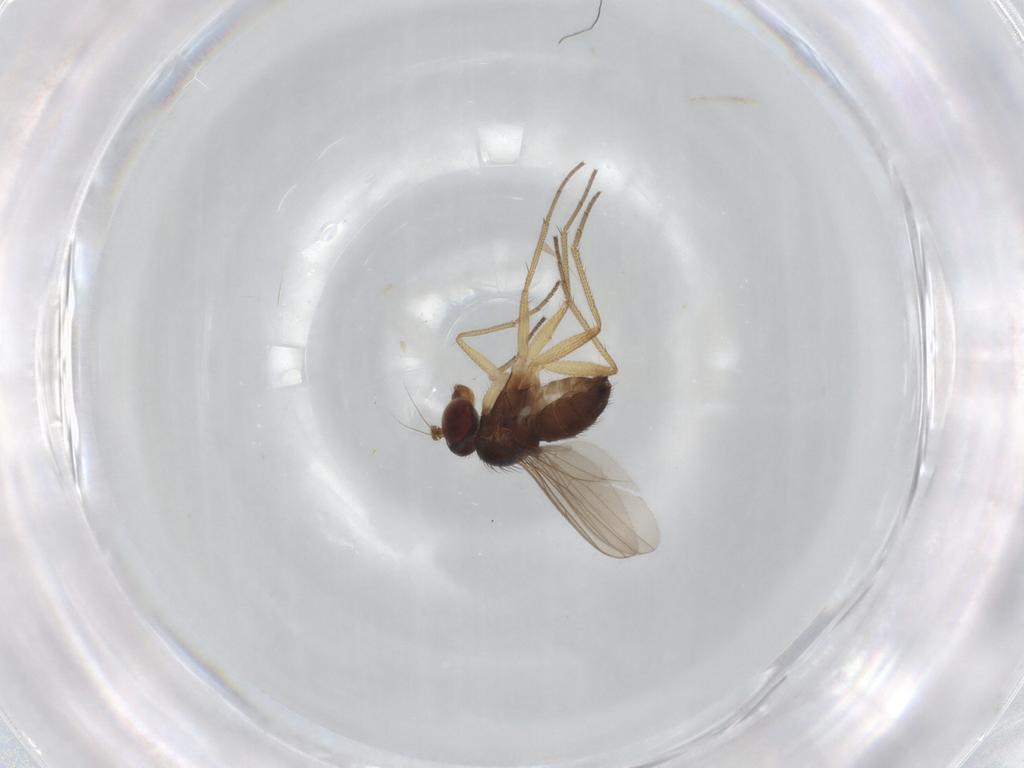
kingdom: Animalia
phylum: Arthropoda
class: Insecta
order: Diptera
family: Dolichopodidae
